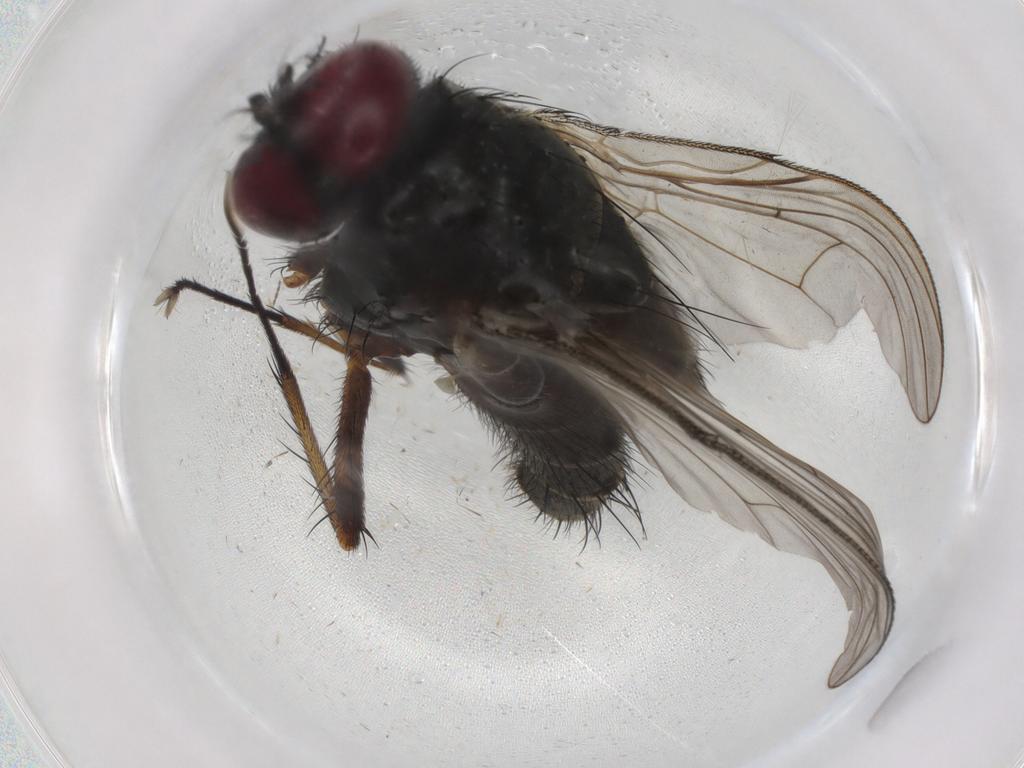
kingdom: Animalia
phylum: Arthropoda
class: Insecta
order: Diptera
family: Muscidae
